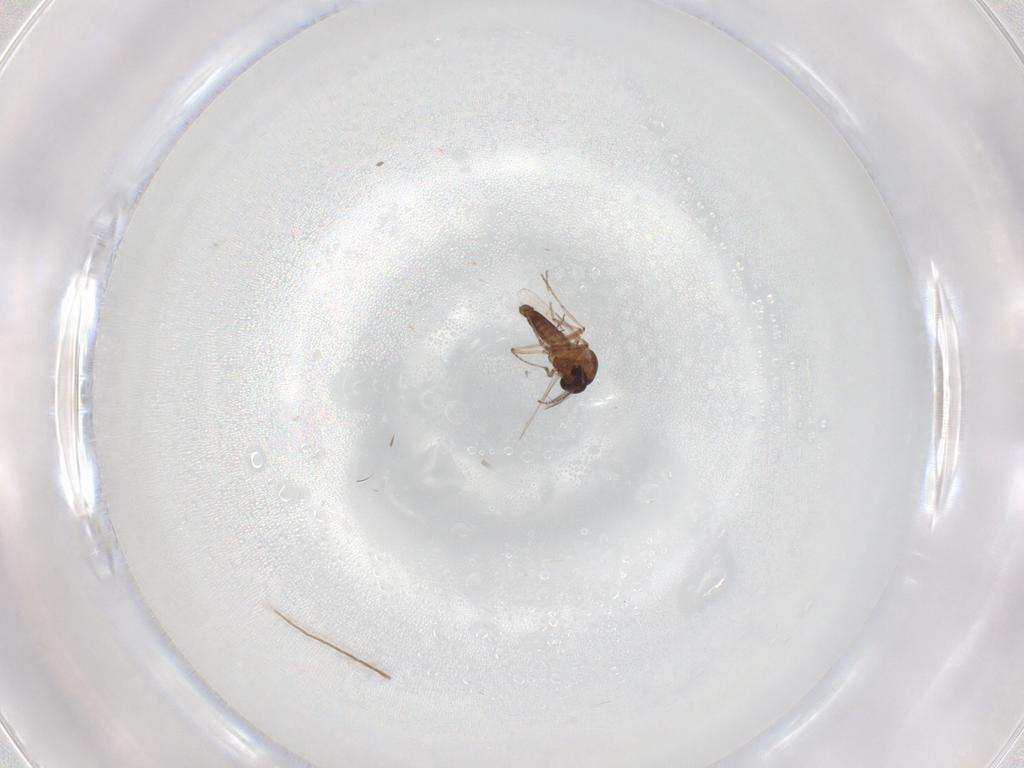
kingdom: Animalia
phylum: Arthropoda
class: Insecta
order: Diptera
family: Ceratopogonidae
